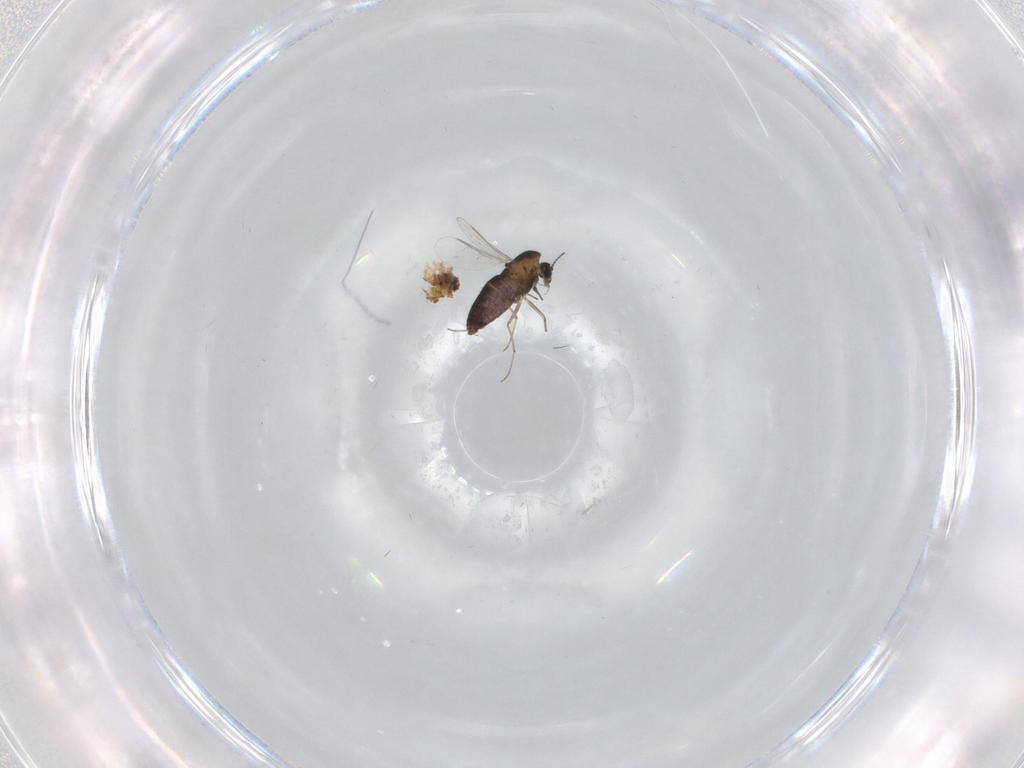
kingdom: Animalia
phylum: Arthropoda
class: Insecta
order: Diptera
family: Chironomidae
